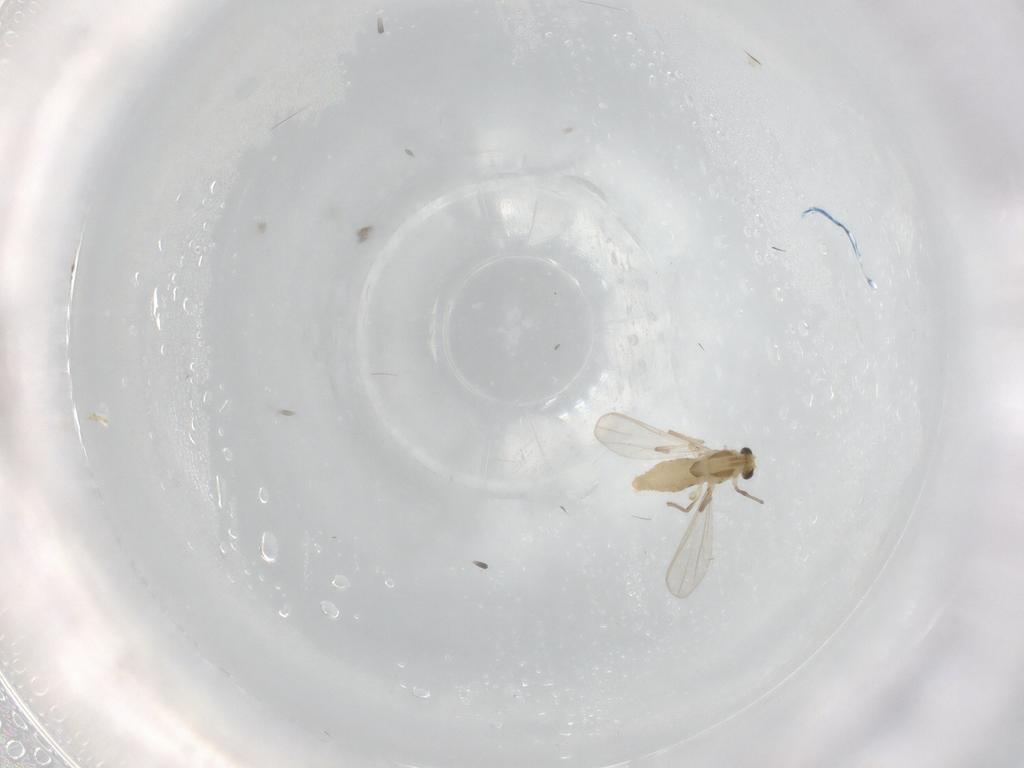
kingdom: Animalia
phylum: Arthropoda
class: Insecta
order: Diptera
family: Chironomidae
